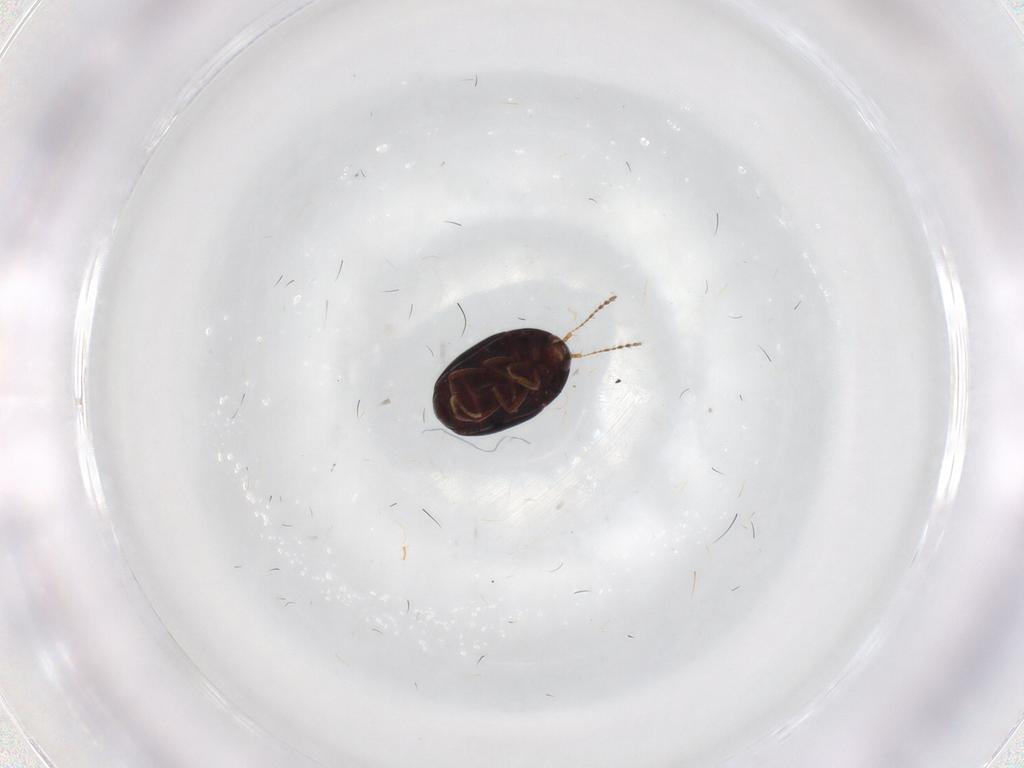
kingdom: Animalia
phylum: Arthropoda
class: Insecta
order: Coleoptera
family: Staphylinidae
